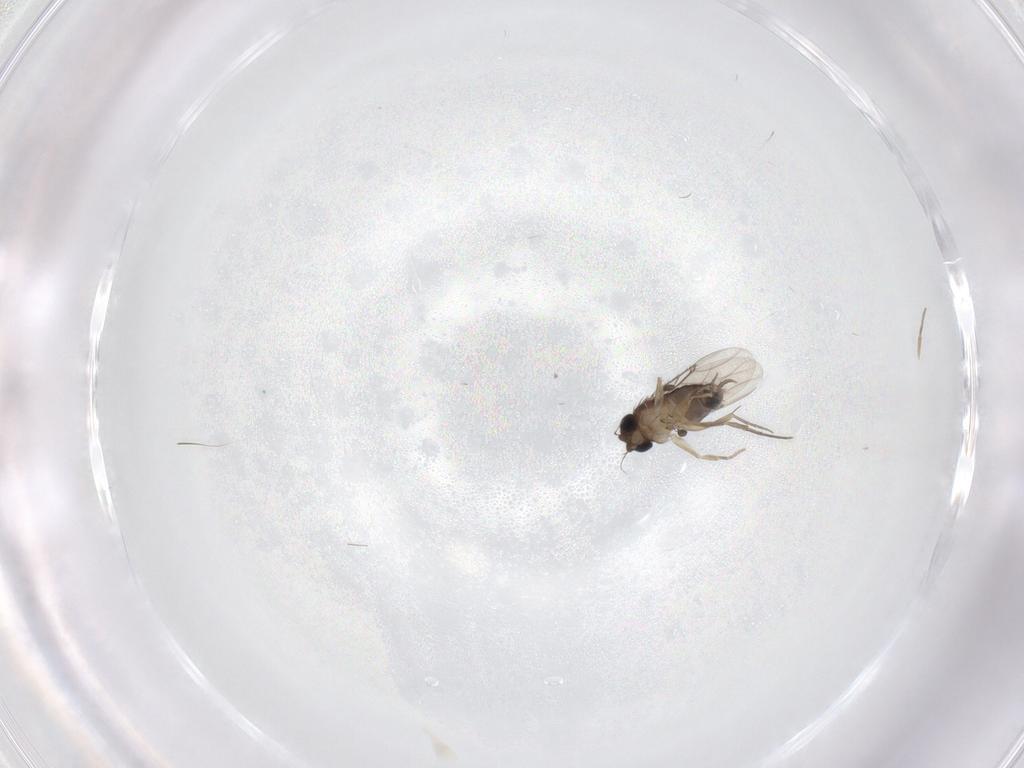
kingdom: Animalia
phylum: Arthropoda
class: Insecta
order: Diptera
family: Phoridae
